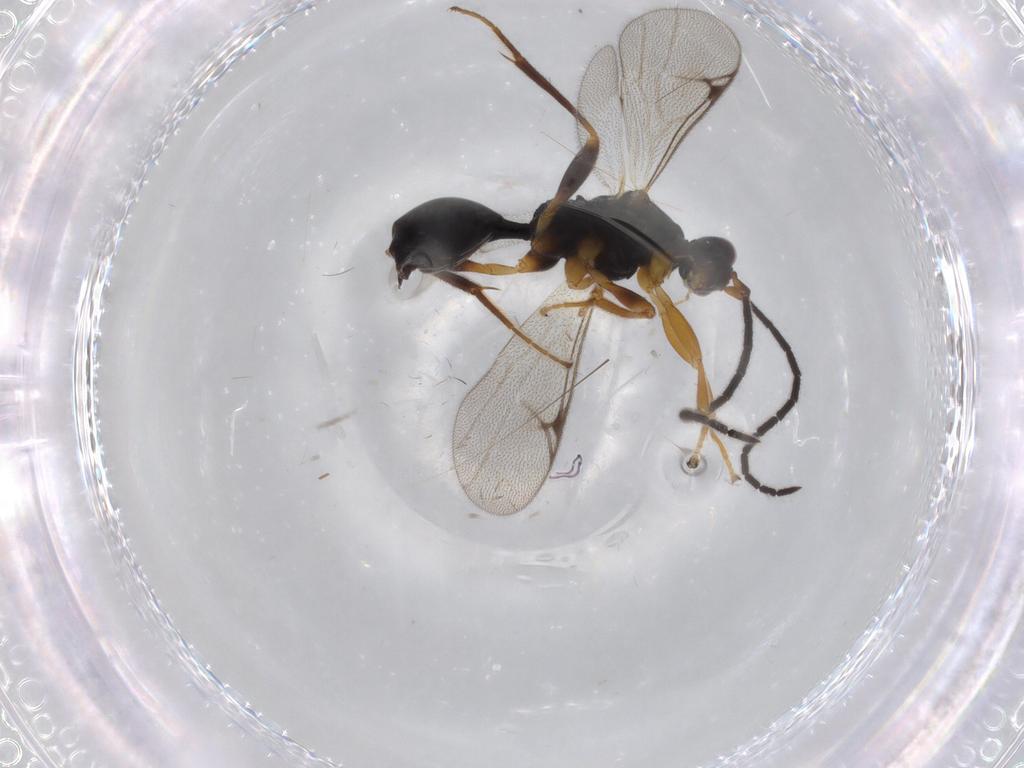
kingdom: Animalia
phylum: Arthropoda
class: Insecta
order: Hymenoptera
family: Proctotrupidae
